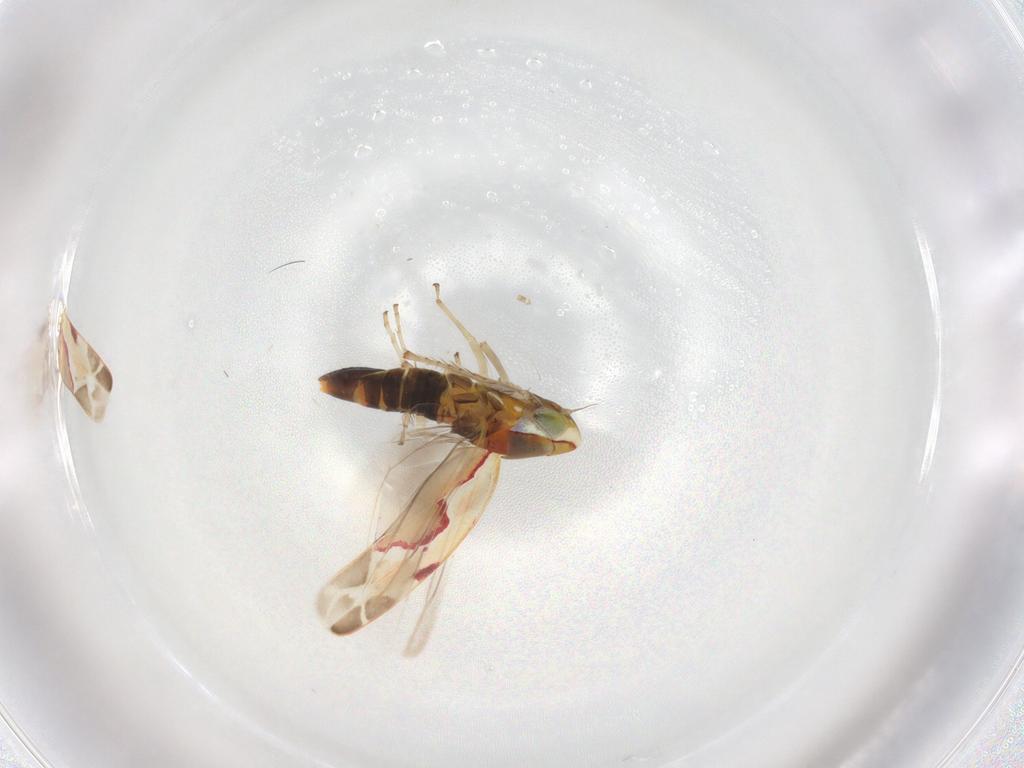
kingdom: Animalia
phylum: Arthropoda
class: Insecta
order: Hemiptera
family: Cicadellidae
